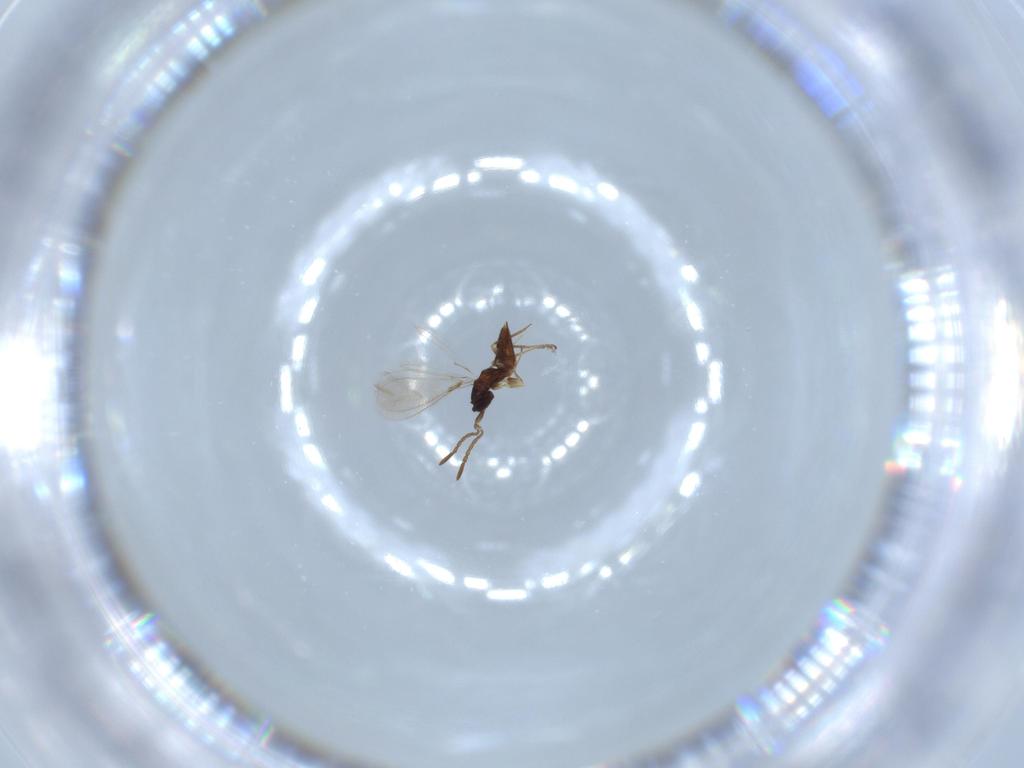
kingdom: Animalia
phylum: Arthropoda
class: Insecta
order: Hymenoptera
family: Mymaridae
